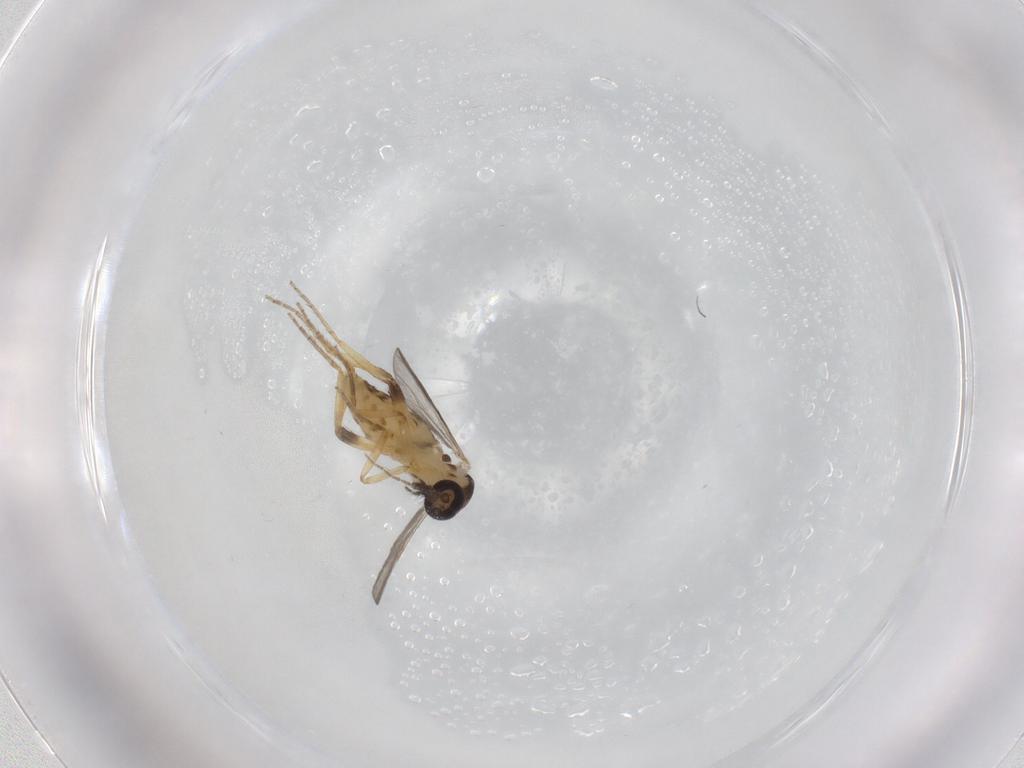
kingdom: Animalia
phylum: Arthropoda
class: Insecta
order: Diptera
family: Ceratopogonidae
